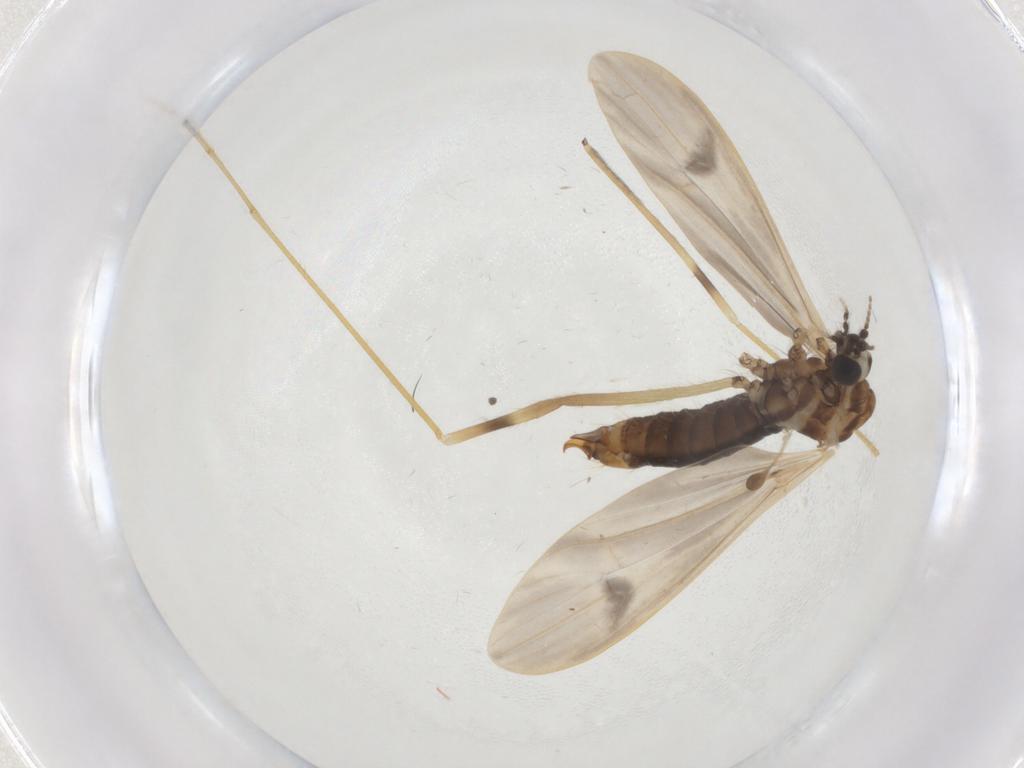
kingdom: Animalia
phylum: Arthropoda
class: Insecta
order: Diptera
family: Limoniidae
